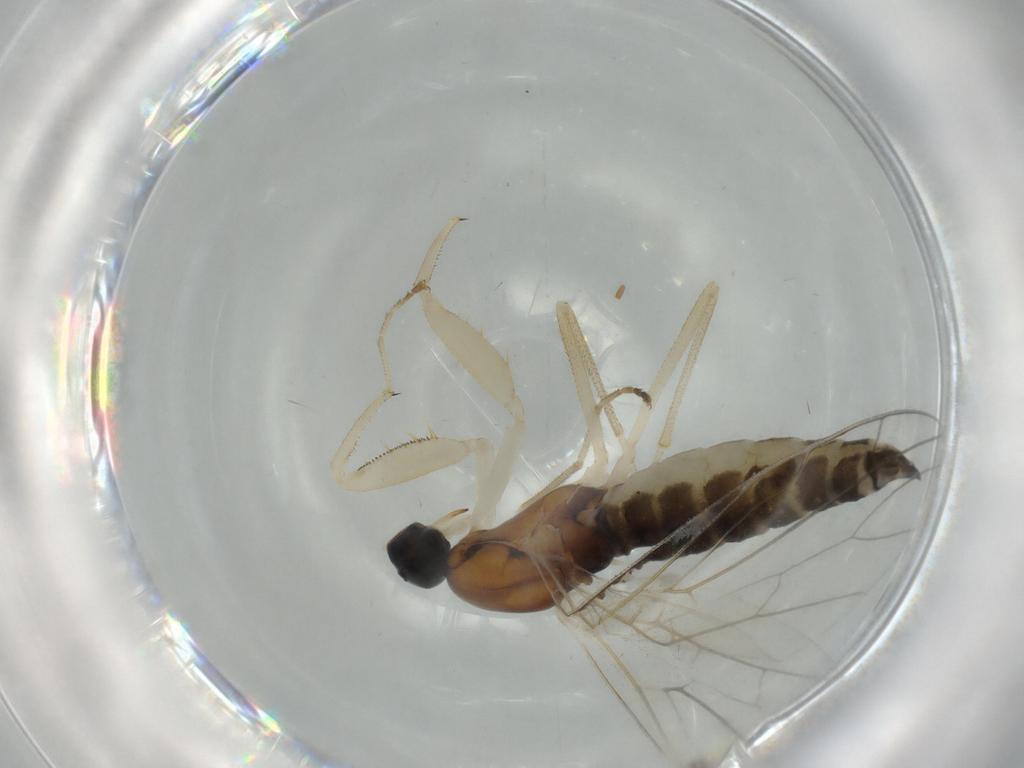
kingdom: Animalia
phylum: Arthropoda
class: Insecta
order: Diptera
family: Empididae
